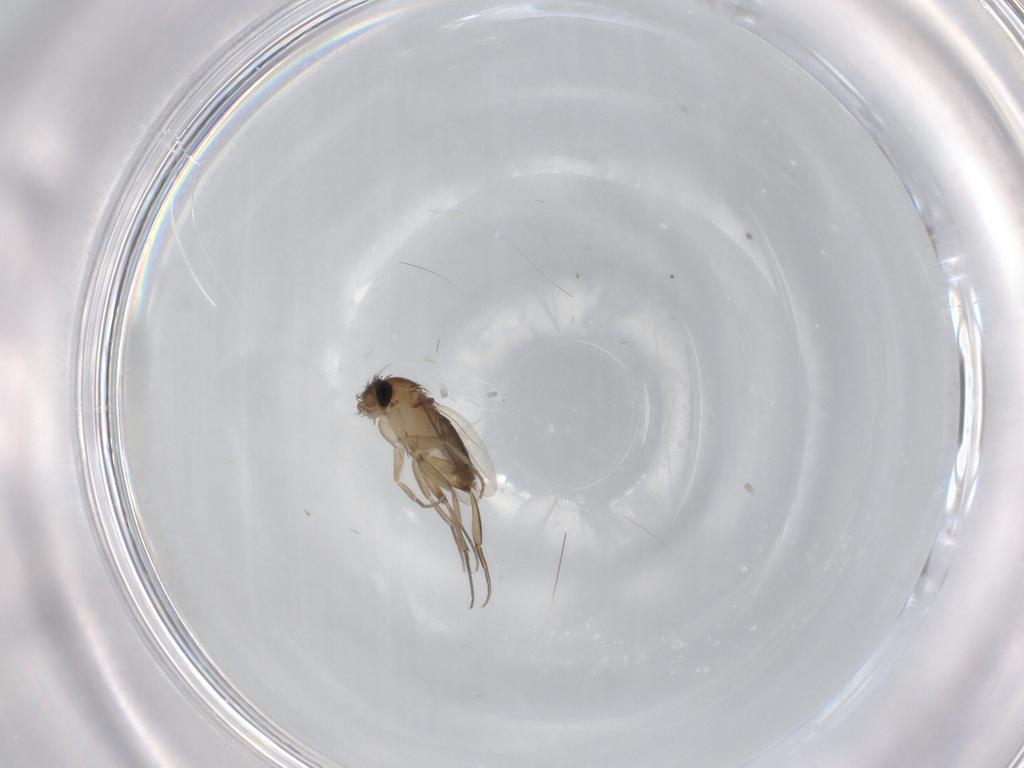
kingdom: Animalia
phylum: Arthropoda
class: Insecta
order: Diptera
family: Phoridae
